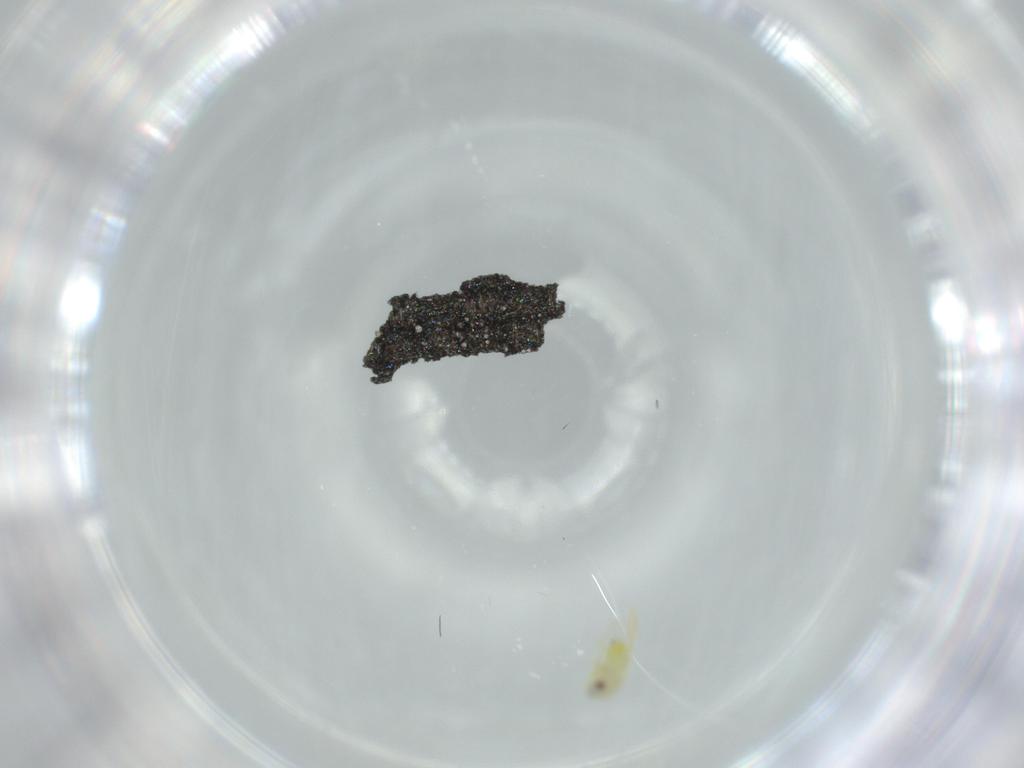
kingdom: Animalia
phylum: Arthropoda
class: Insecta
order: Hemiptera
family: Aleyrodidae
